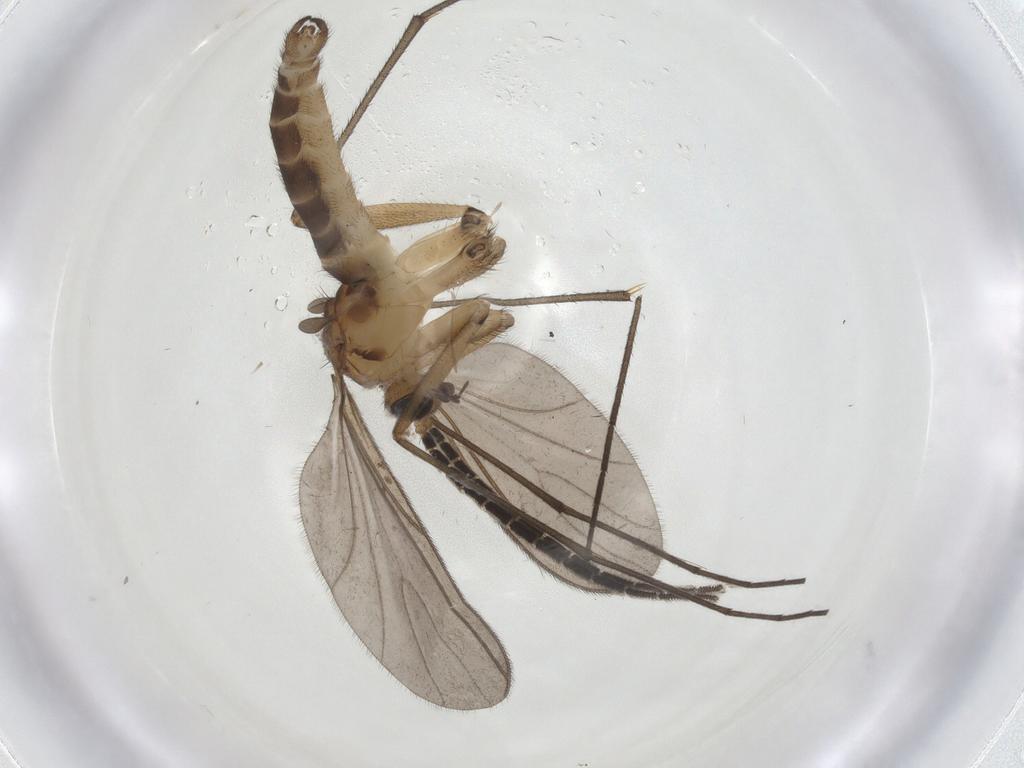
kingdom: Animalia
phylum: Arthropoda
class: Insecta
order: Diptera
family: Sciaridae
